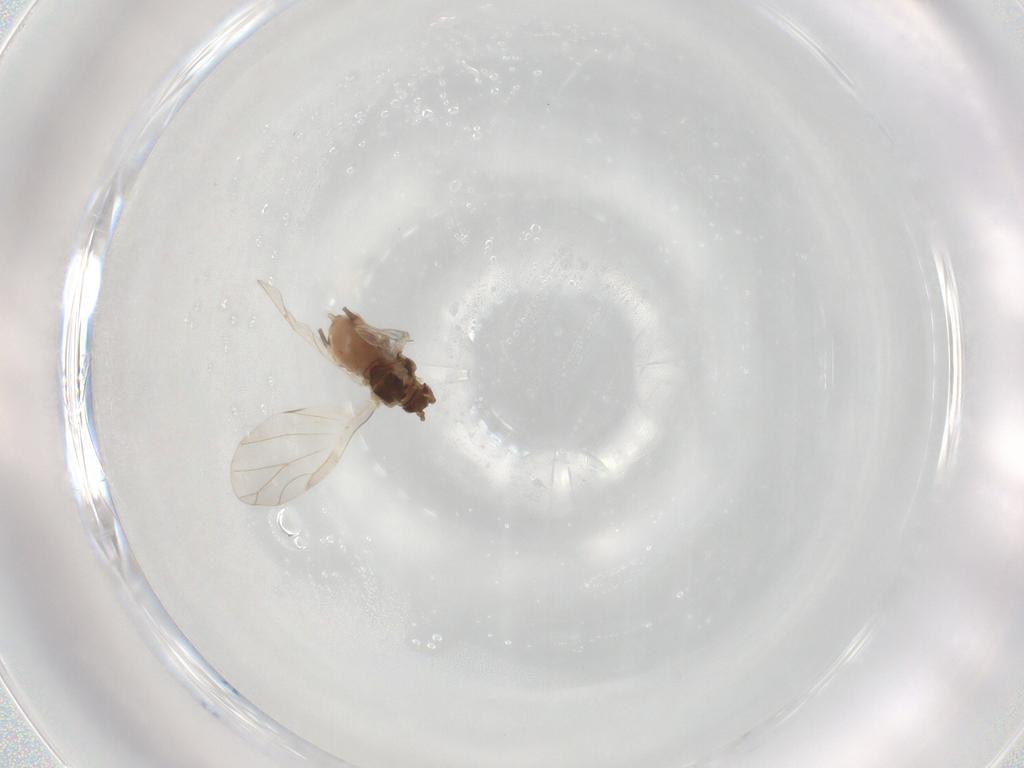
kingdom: Animalia
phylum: Arthropoda
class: Insecta
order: Hemiptera
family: Aphididae
